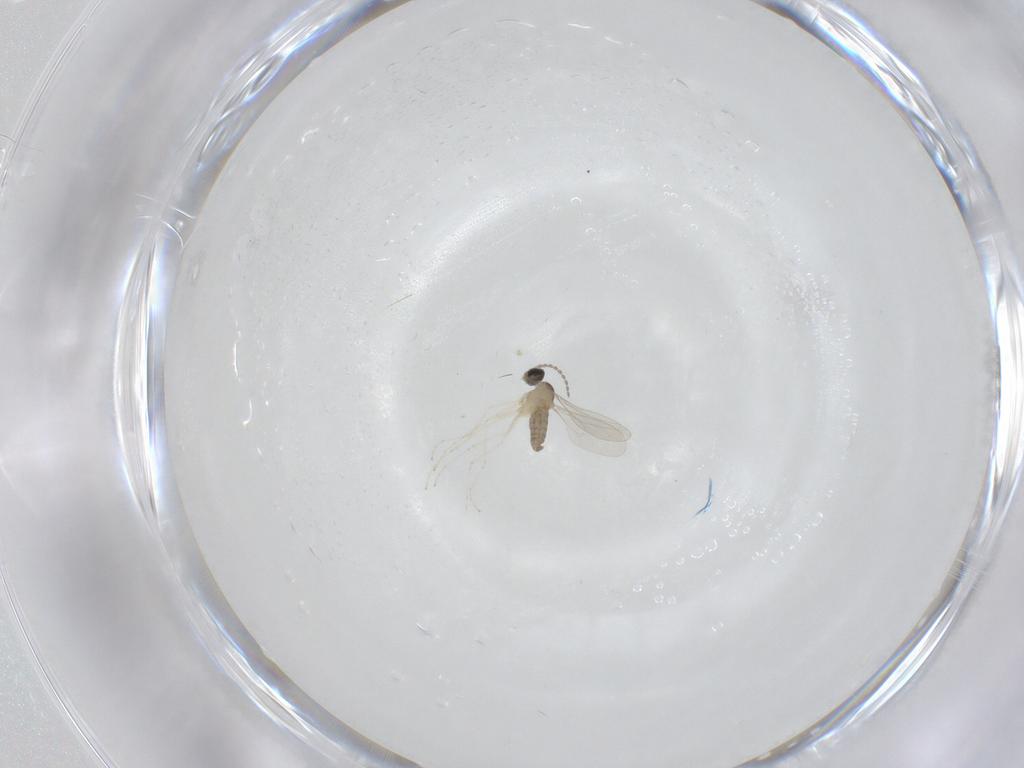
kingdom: Animalia
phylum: Arthropoda
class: Insecta
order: Diptera
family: Cecidomyiidae
